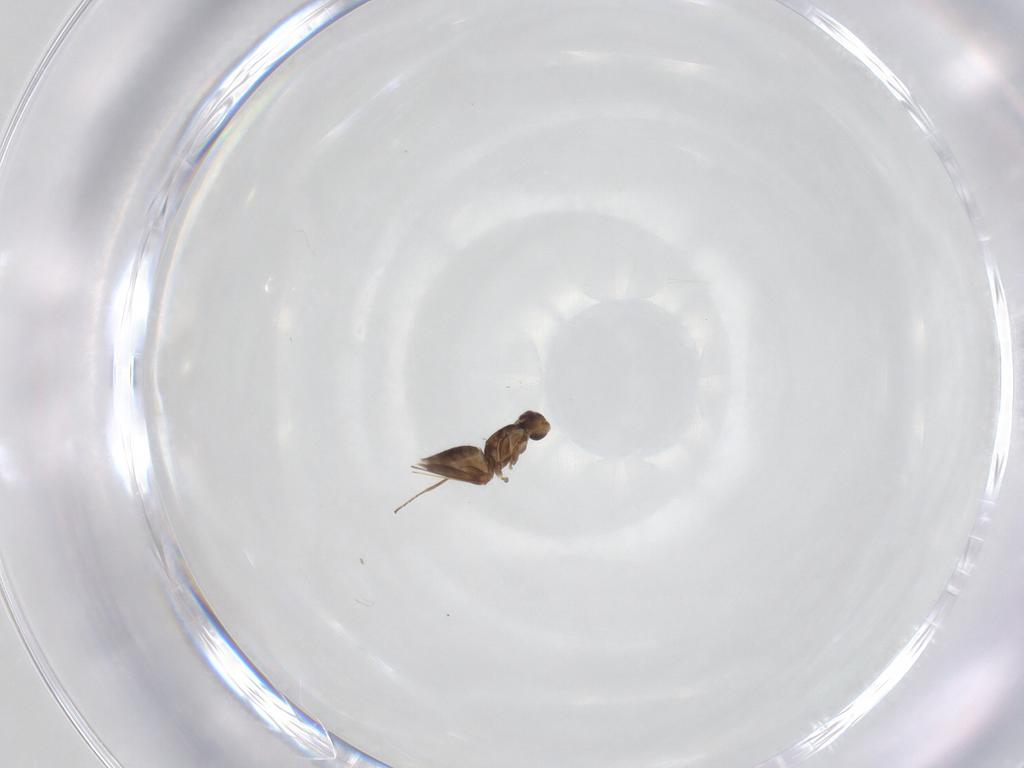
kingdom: Animalia
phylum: Arthropoda
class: Insecta
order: Hymenoptera
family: Mymaridae
